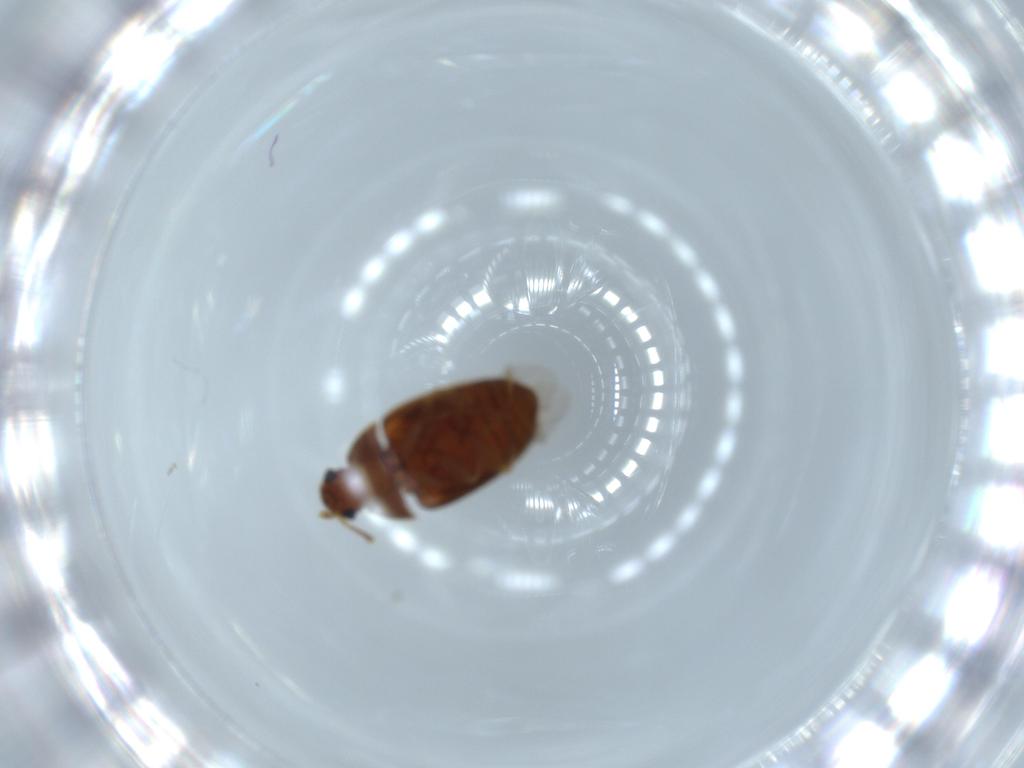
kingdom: Animalia
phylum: Arthropoda
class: Insecta
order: Coleoptera
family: Mycetophagidae
